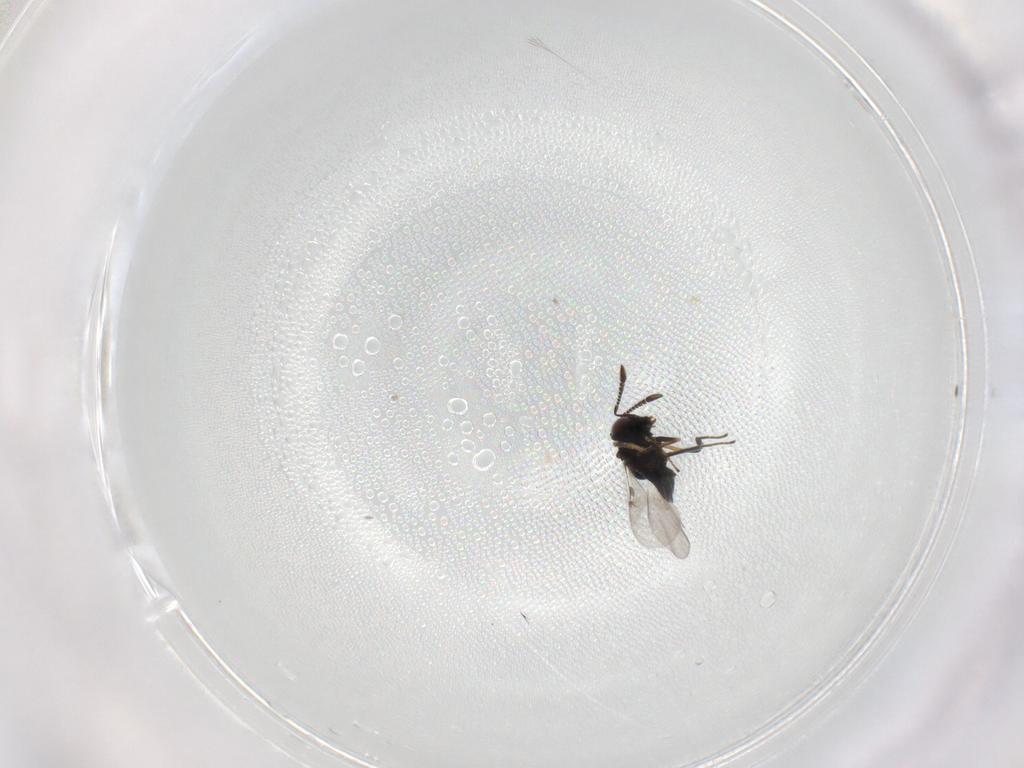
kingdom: Animalia
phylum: Arthropoda
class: Insecta
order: Hymenoptera
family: Encyrtidae
